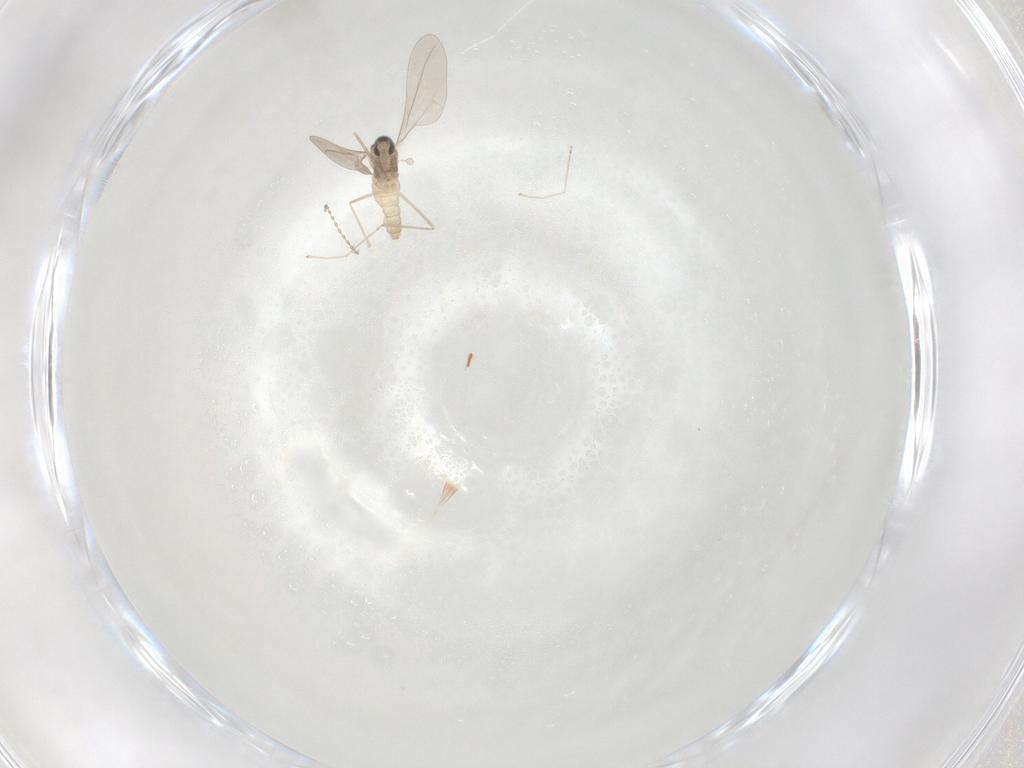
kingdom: Animalia
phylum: Arthropoda
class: Insecta
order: Diptera
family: Cecidomyiidae
